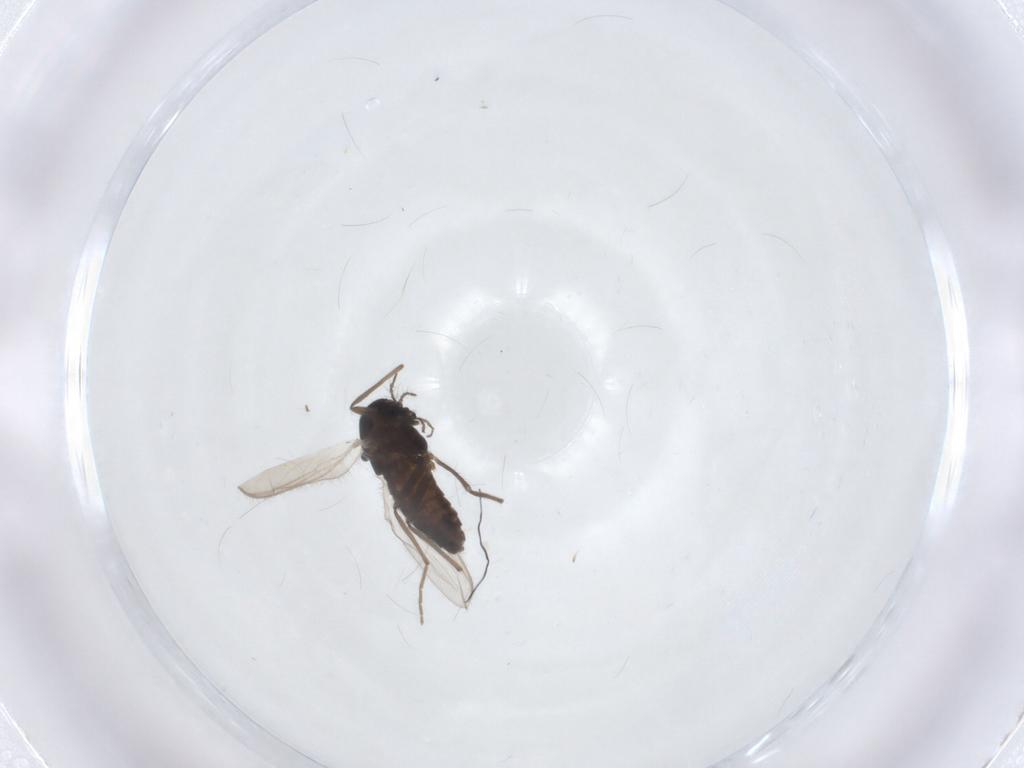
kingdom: Animalia
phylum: Arthropoda
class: Insecta
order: Diptera
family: Chironomidae
